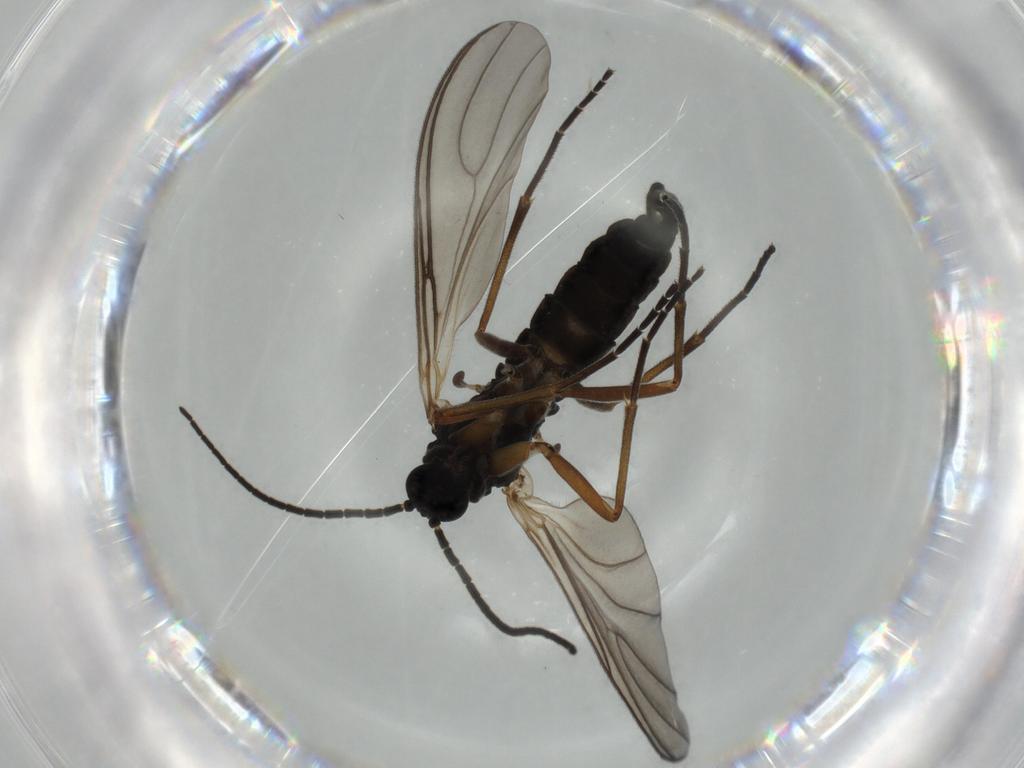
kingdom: Animalia
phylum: Arthropoda
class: Insecta
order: Diptera
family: Sciaridae
